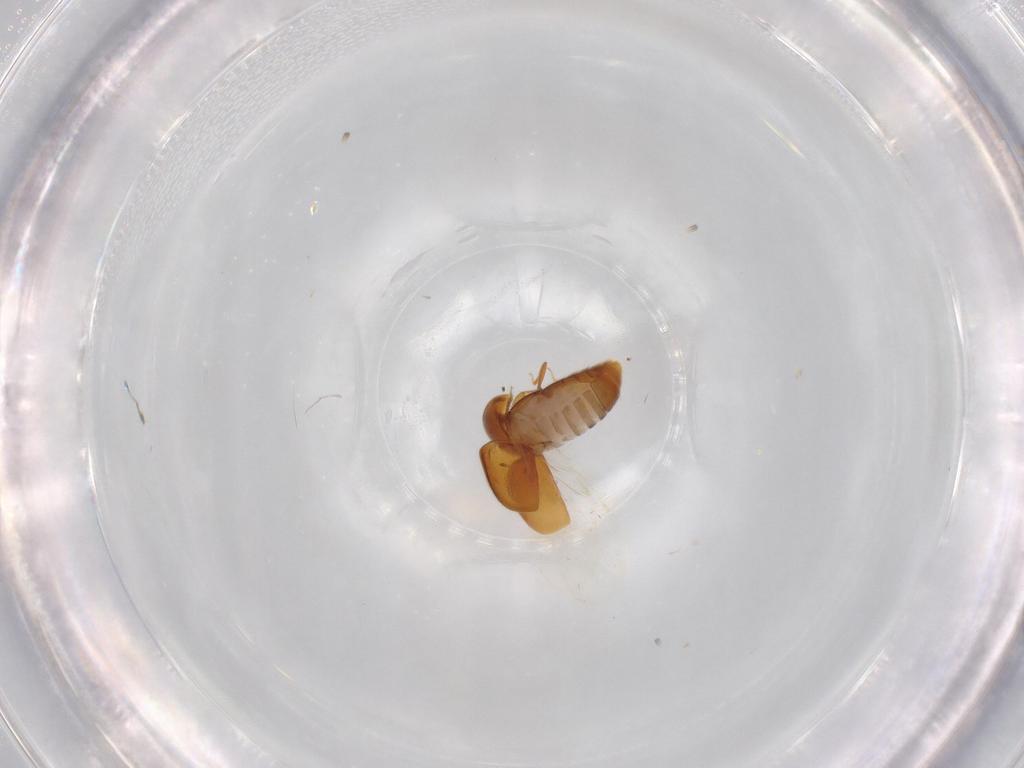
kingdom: Animalia
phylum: Arthropoda
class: Insecta
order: Coleoptera
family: Corylophidae
